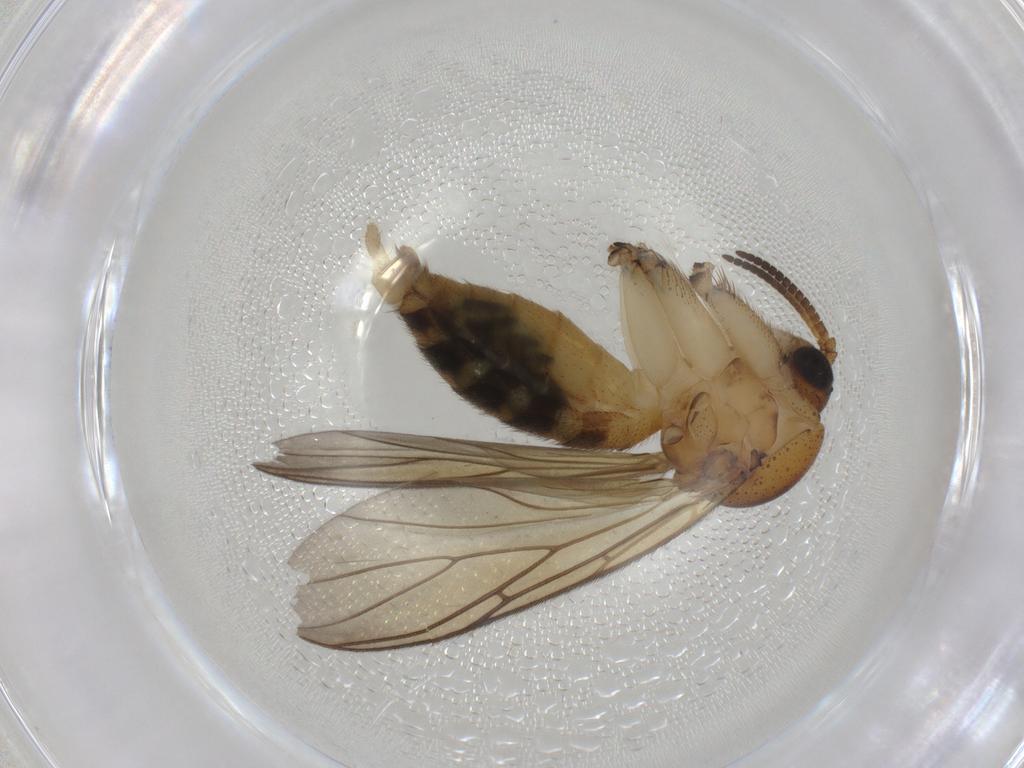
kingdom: Animalia
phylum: Arthropoda
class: Insecta
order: Diptera
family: Mycetophilidae
